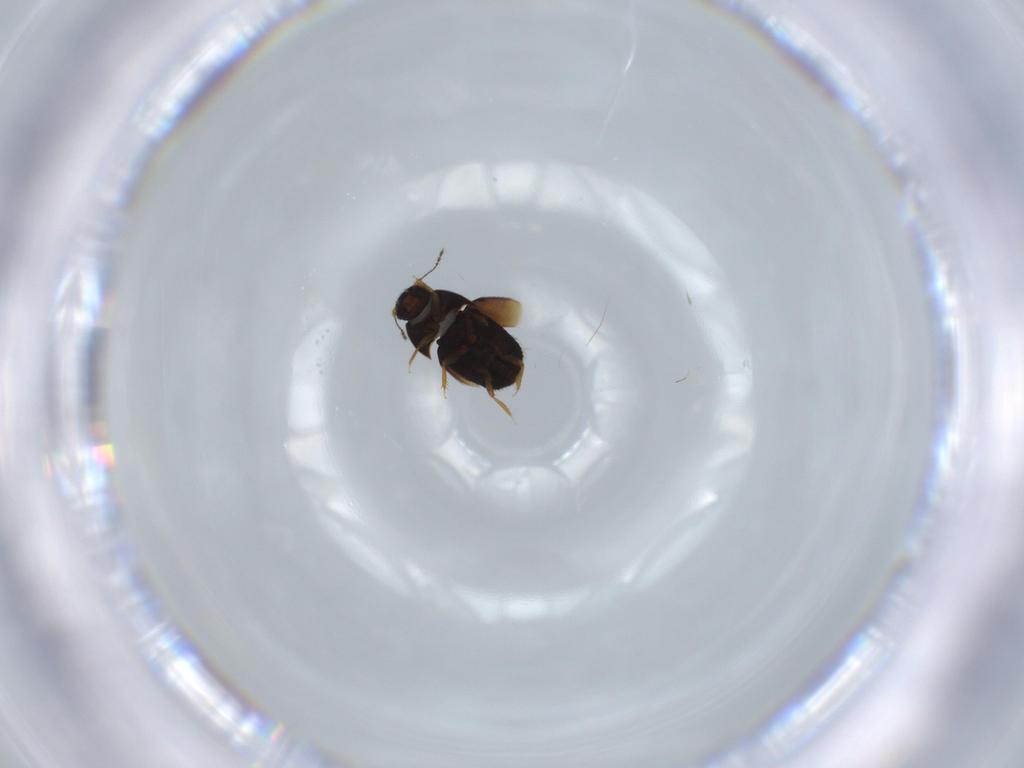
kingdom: Animalia
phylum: Arthropoda
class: Insecta
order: Coleoptera
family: Ptiliidae
